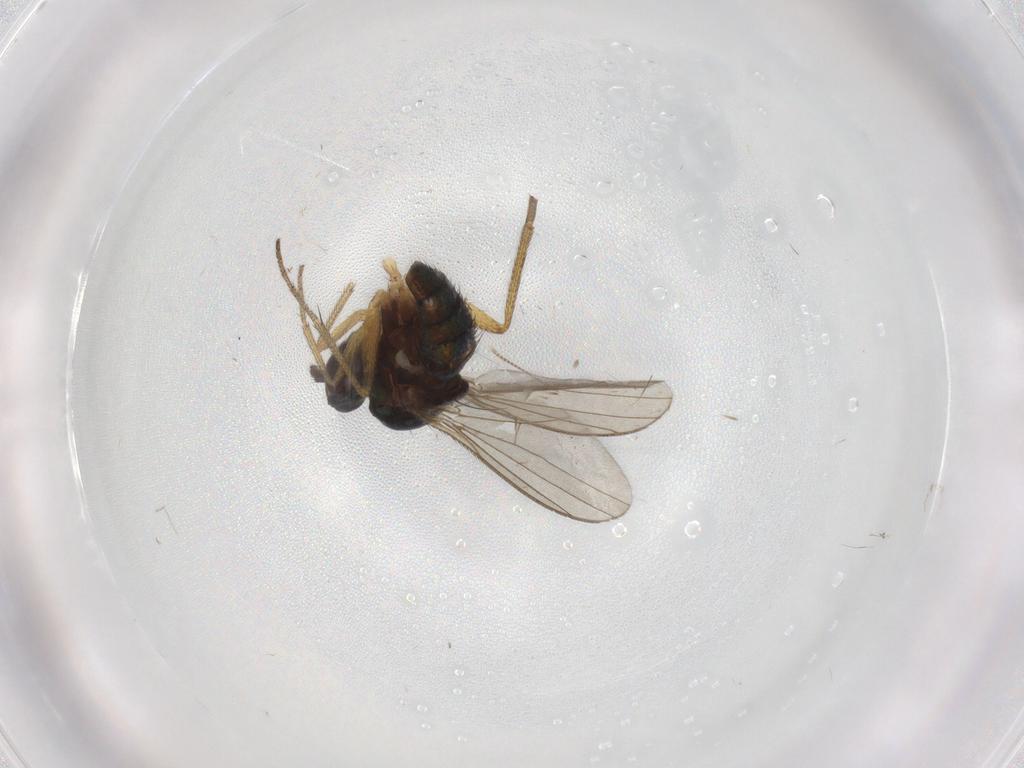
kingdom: Animalia
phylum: Arthropoda
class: Insecta
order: Diptera
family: Dolichopodidae
